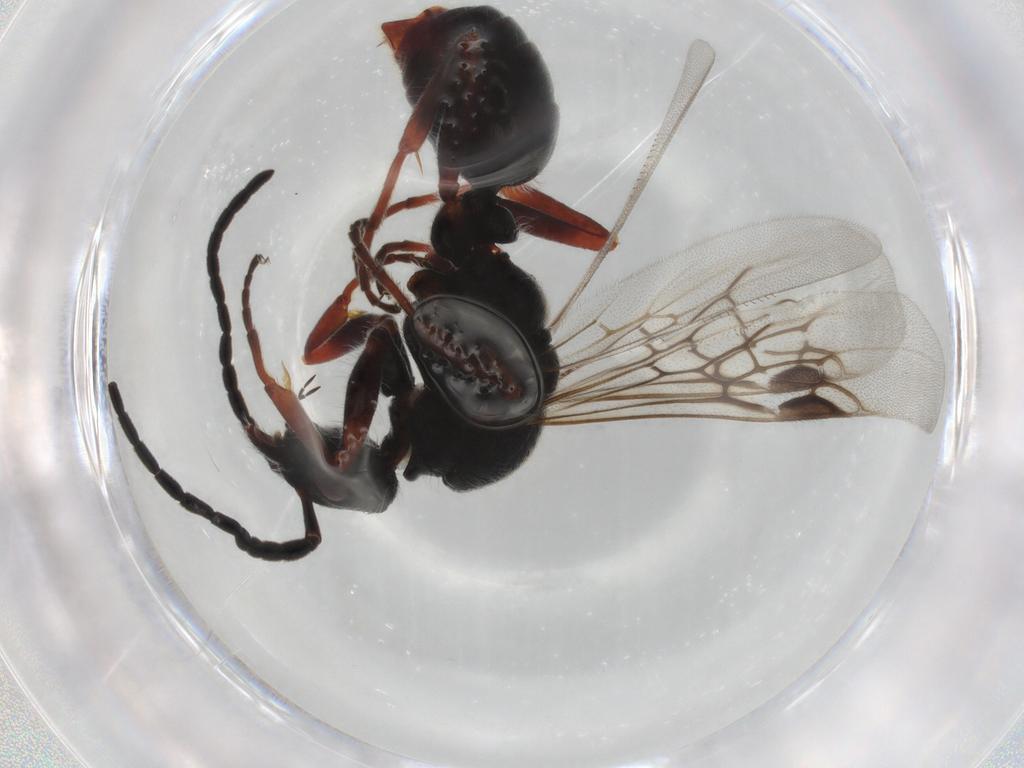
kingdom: Animalia
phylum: Arthropoda
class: Insecta
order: Hymenoptera
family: Formicidae
